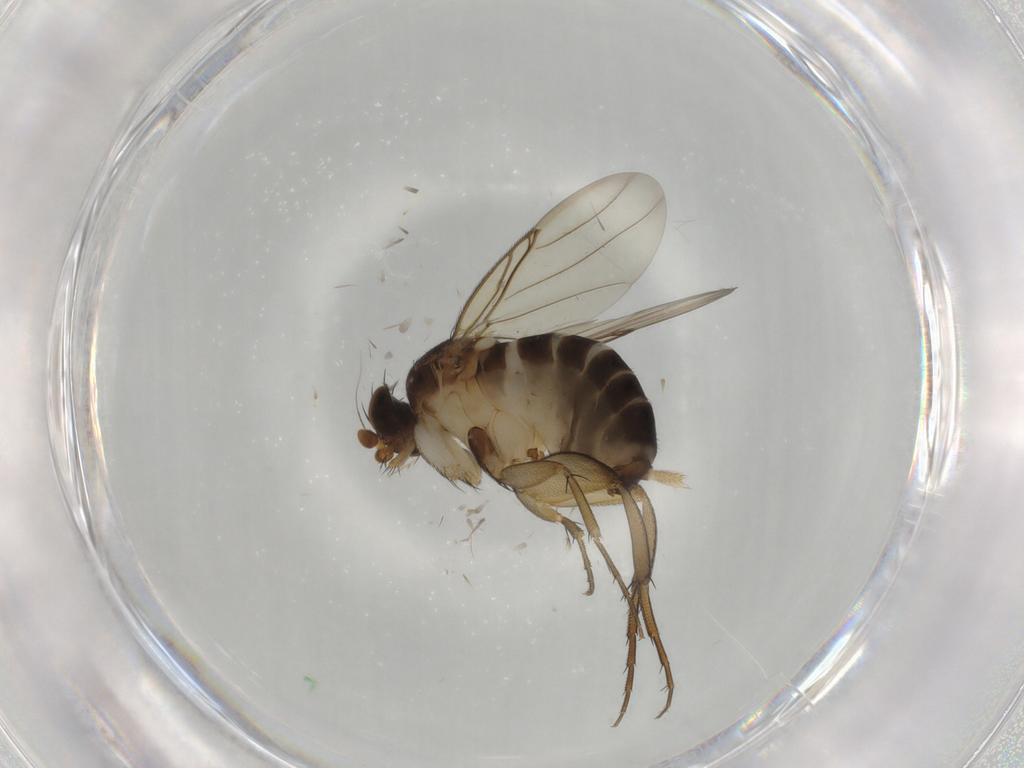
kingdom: Animalia
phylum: Arthropoda
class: Insecta
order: Diptera
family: Phoridae
